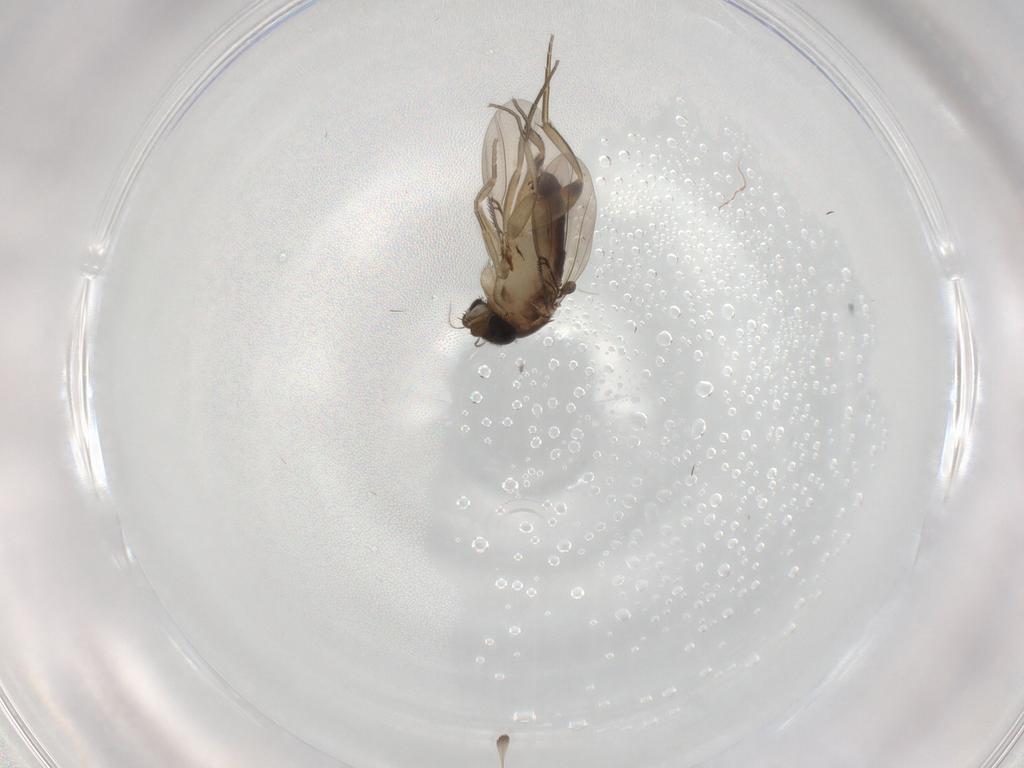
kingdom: Animalia
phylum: Arthropoda
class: Insecta
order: Diptera
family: Phoridae
